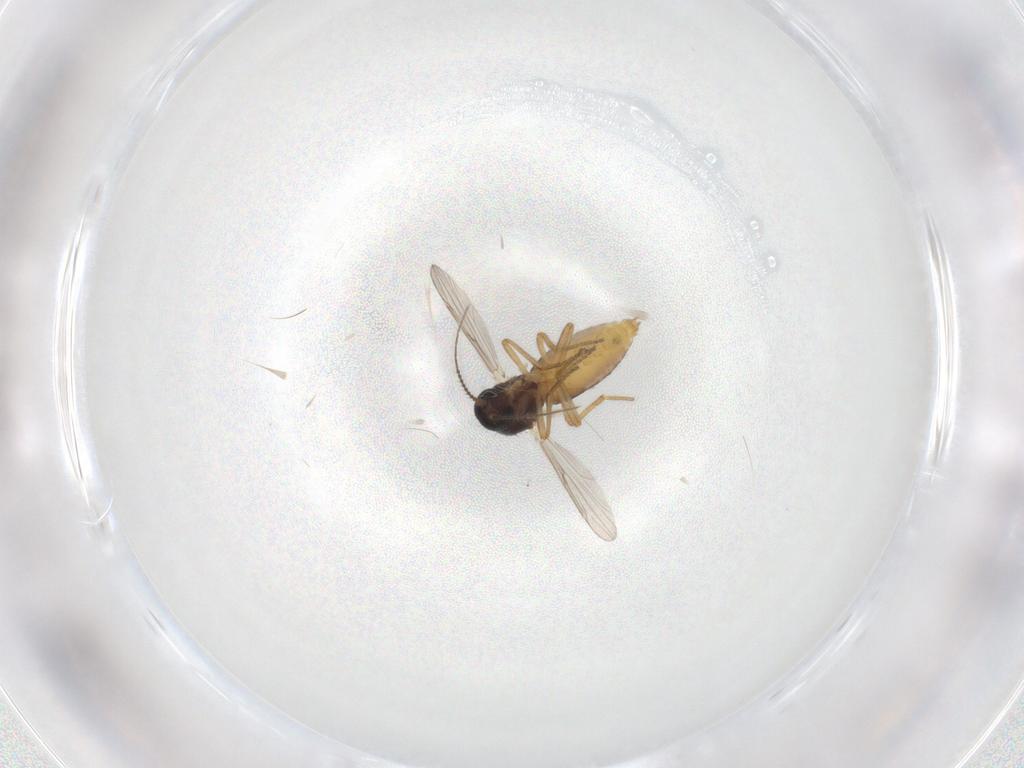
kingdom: Animalia
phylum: Arthropoda
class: Insecta
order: Diptera
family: Ceratopogonidae
